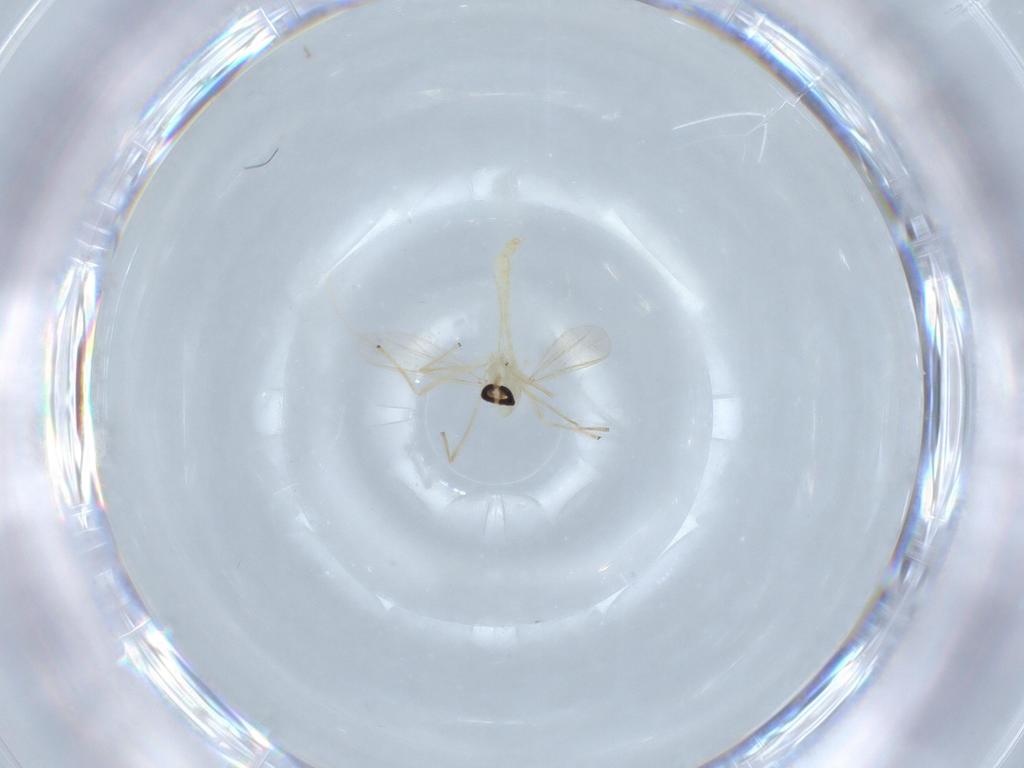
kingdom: Animalia
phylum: Arthropoda
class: Insecta
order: Diptera
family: Chironomidae
